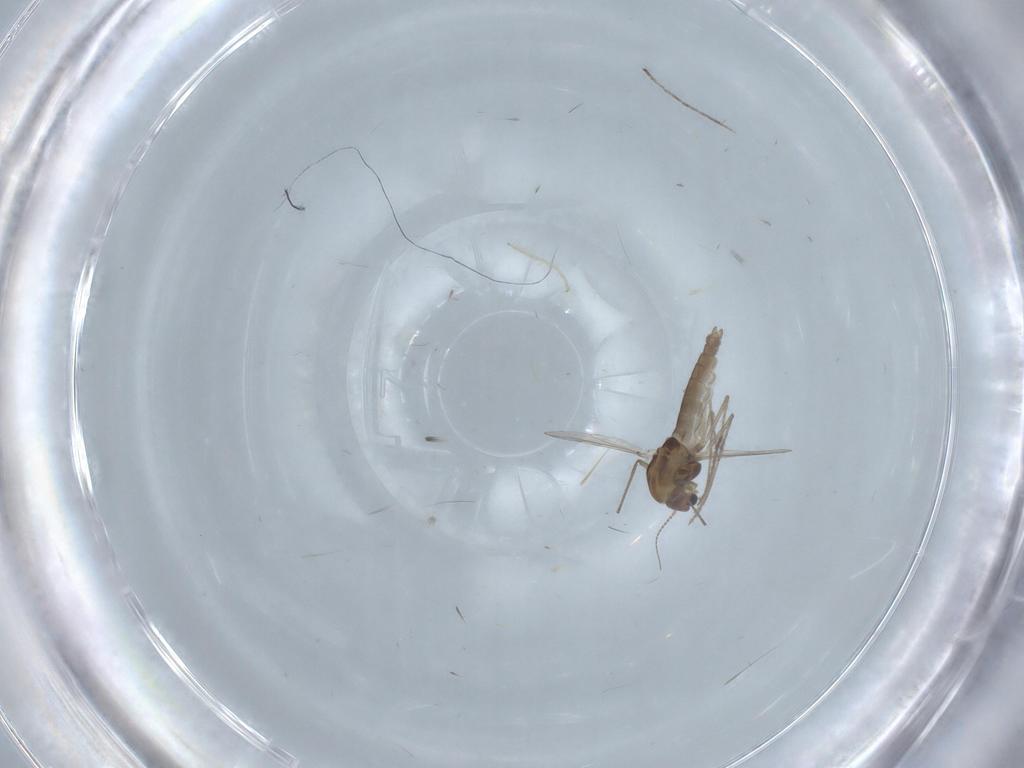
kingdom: Animalia
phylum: Arthropoda
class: Insecta
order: Diptera
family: Chironomidae
